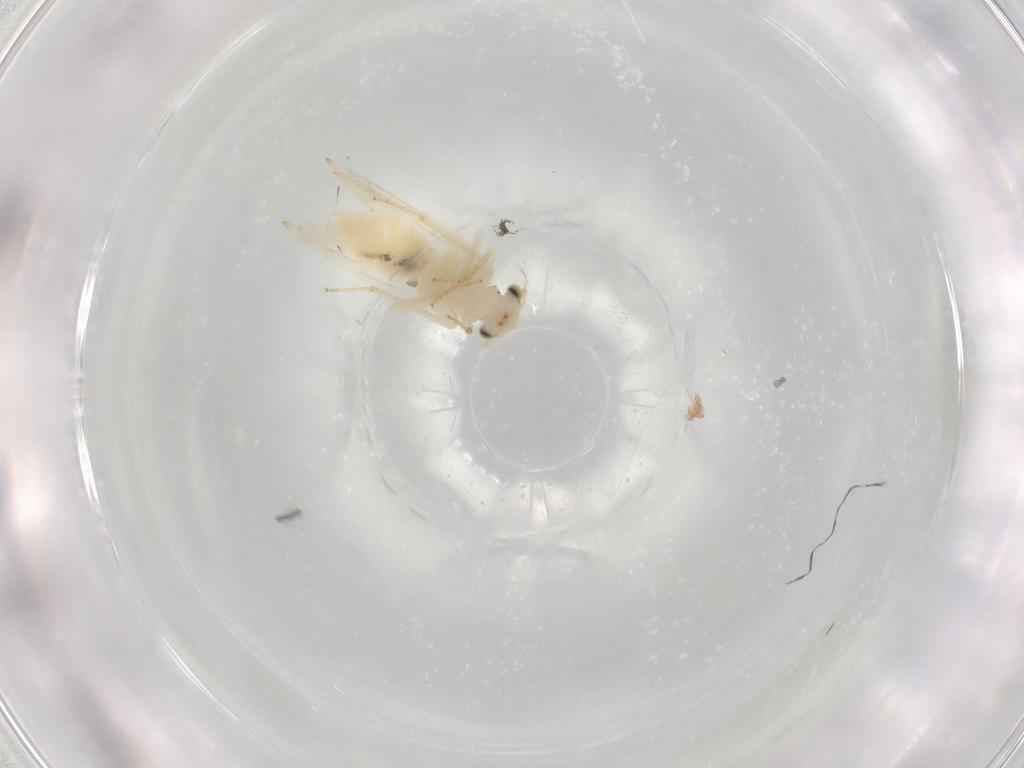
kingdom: Animalia
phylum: Arthropoda
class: Insecta
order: Psocodea
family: Lepidopsocidae
